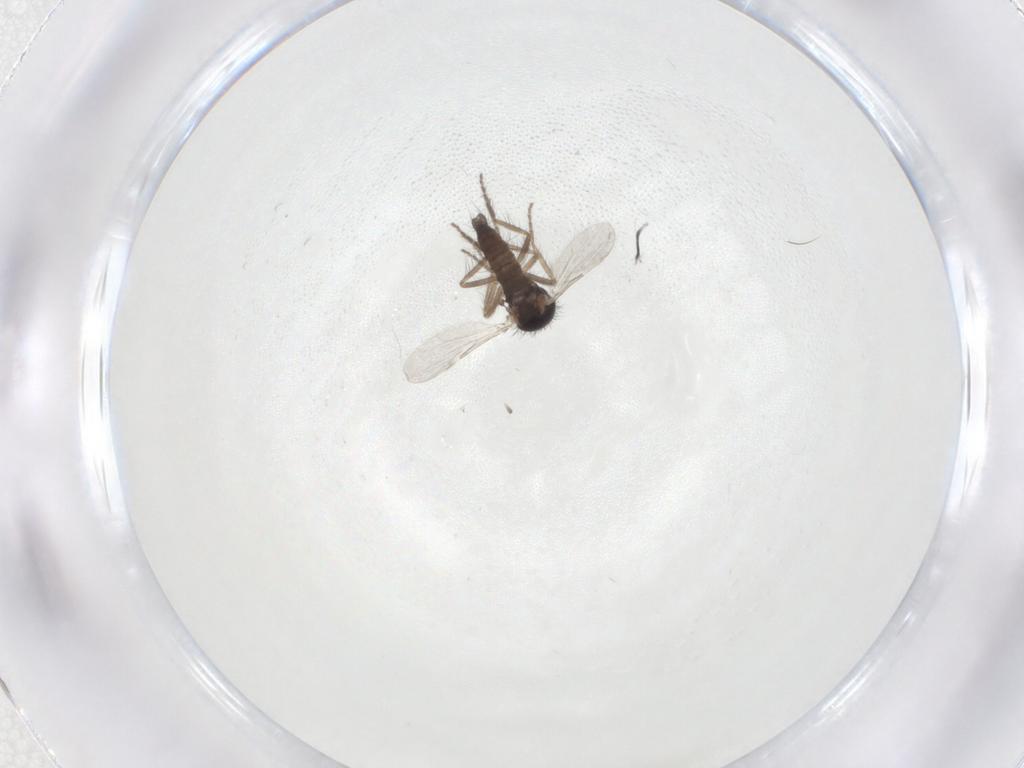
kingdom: Animalia
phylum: Arthropoda
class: Insecta
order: Diptera
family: Ceratopogonidae
